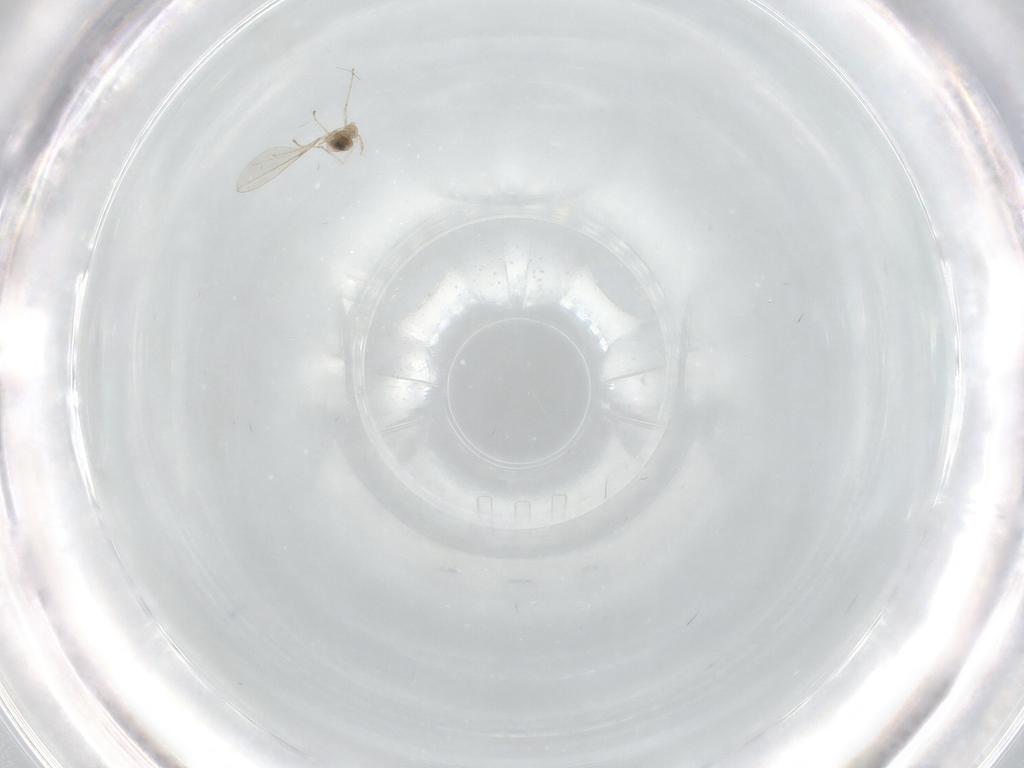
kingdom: Animalia
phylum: Arthropoda
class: Insecta
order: Diptera
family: Cecidomyiidae
